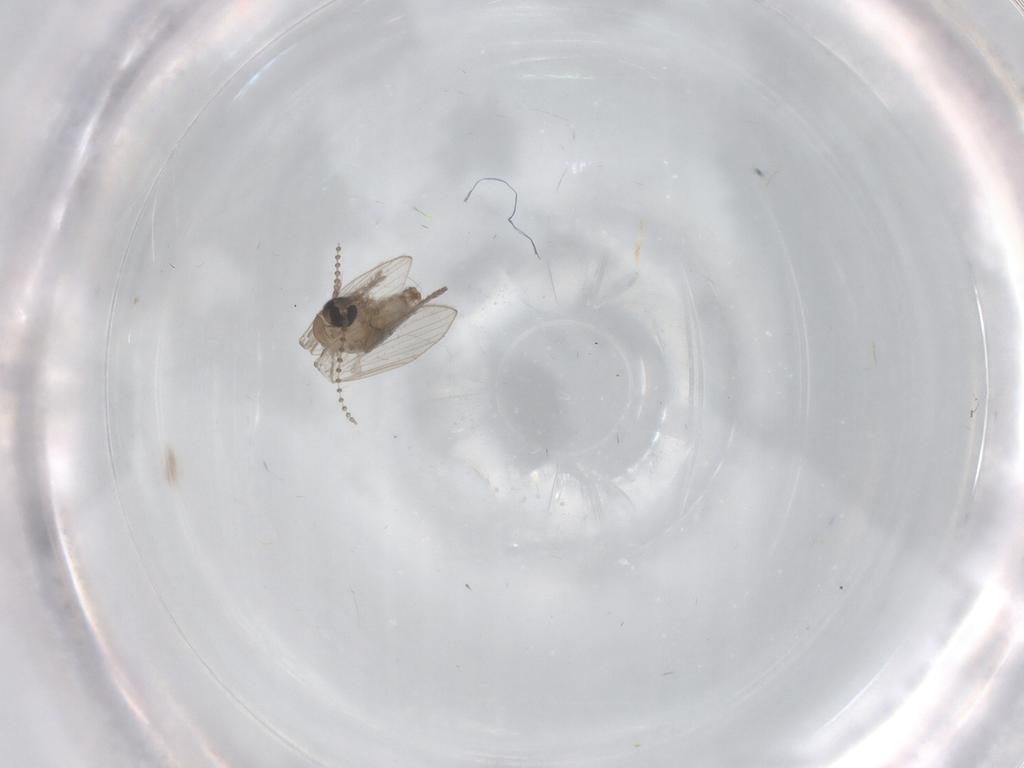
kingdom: Animalia
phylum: Arthropoda
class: Insecta
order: Diptera
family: Psychodidae
